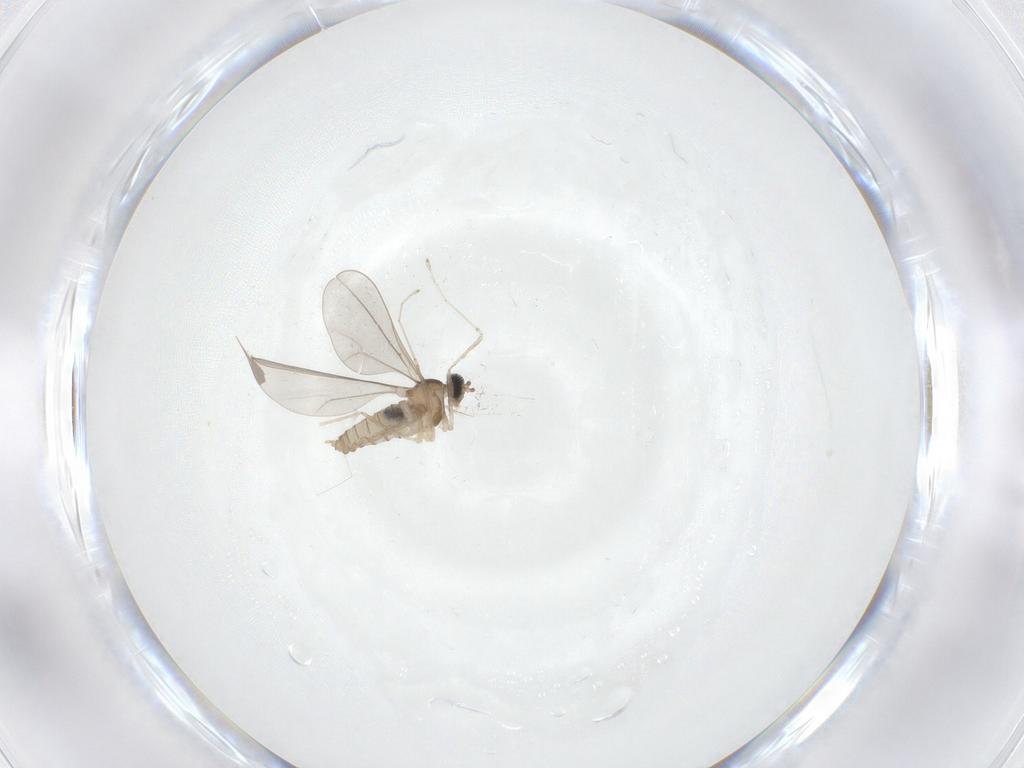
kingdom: Animalia
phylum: Arthropoda
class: Insecta
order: Diptera
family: Cecidomyiidae
